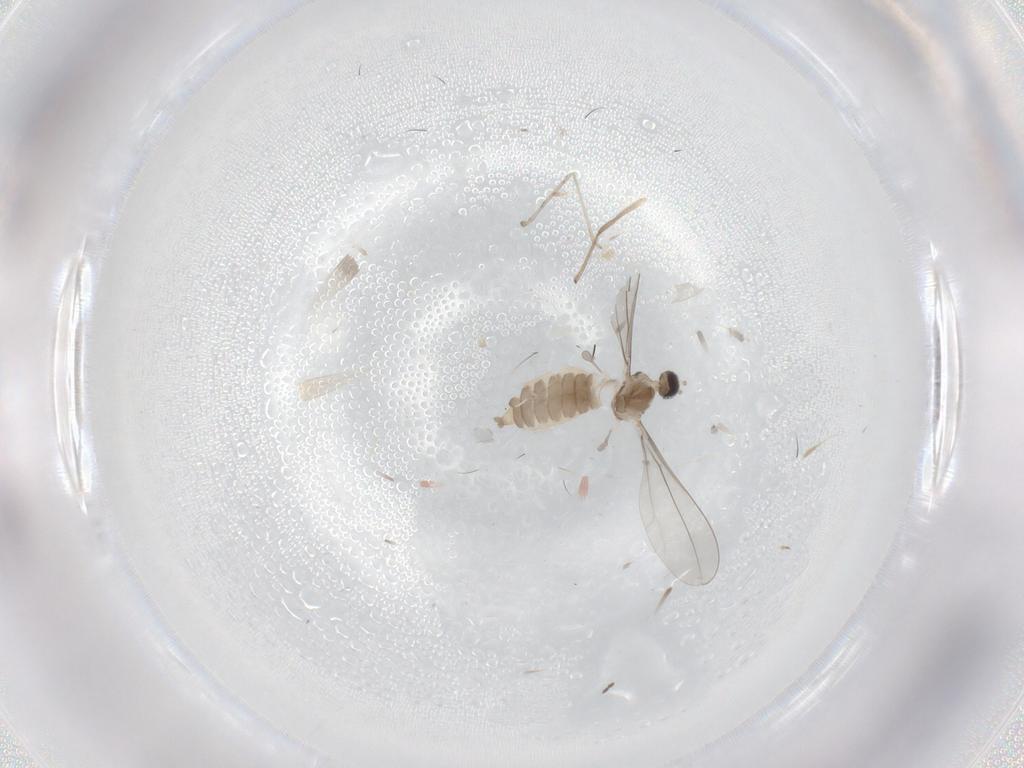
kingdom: Animalia
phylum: Arthropoda
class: Insecta
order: Diptera
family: Cecidomyiidae
